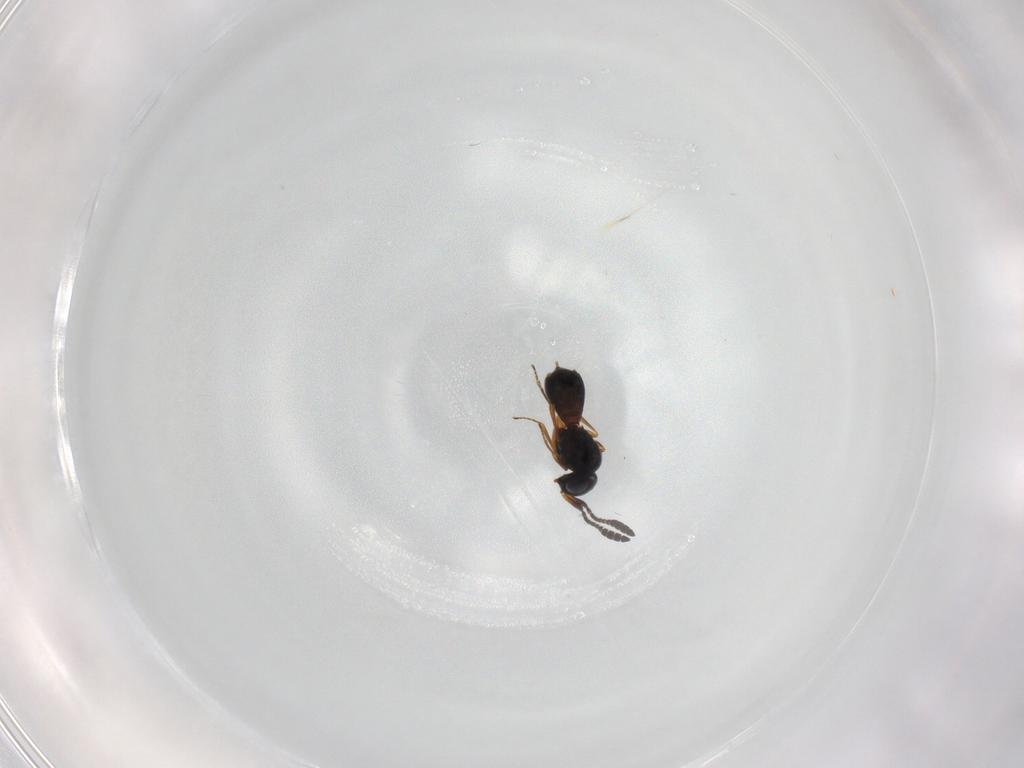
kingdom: Animalia
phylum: Arthropoda
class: Insecta
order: Hymenoptera
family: Scelionidae
